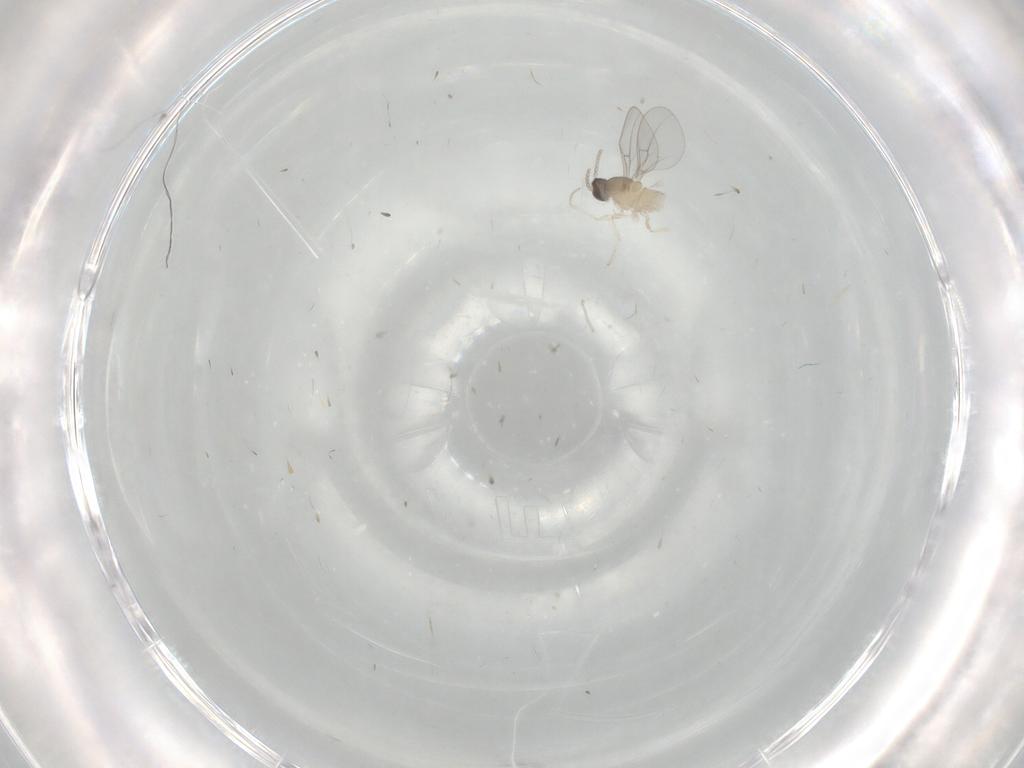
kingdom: Animalia
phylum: Arthropoda
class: Insecta
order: Diptera
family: Cecidomyiidae
